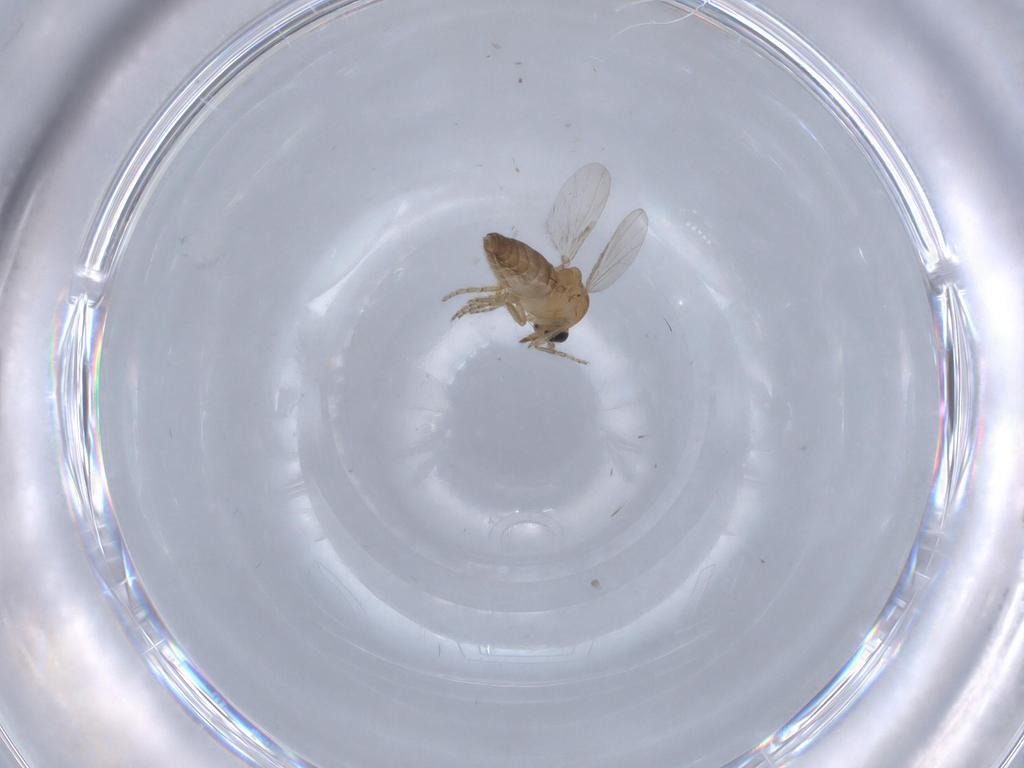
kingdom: Animalia
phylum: Arthropoda
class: Insecta
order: Diptera
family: Ceratopogonidae
